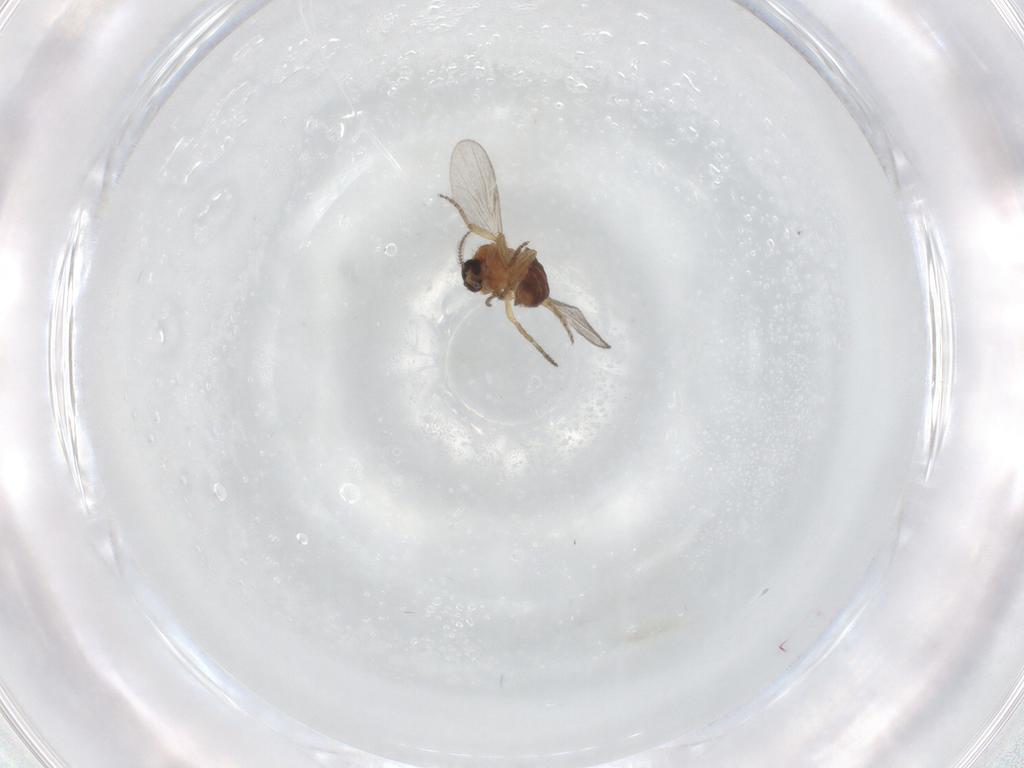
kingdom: Animalia
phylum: Arthropoda
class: Insecta
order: Diptera
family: Ceratopogonidae
